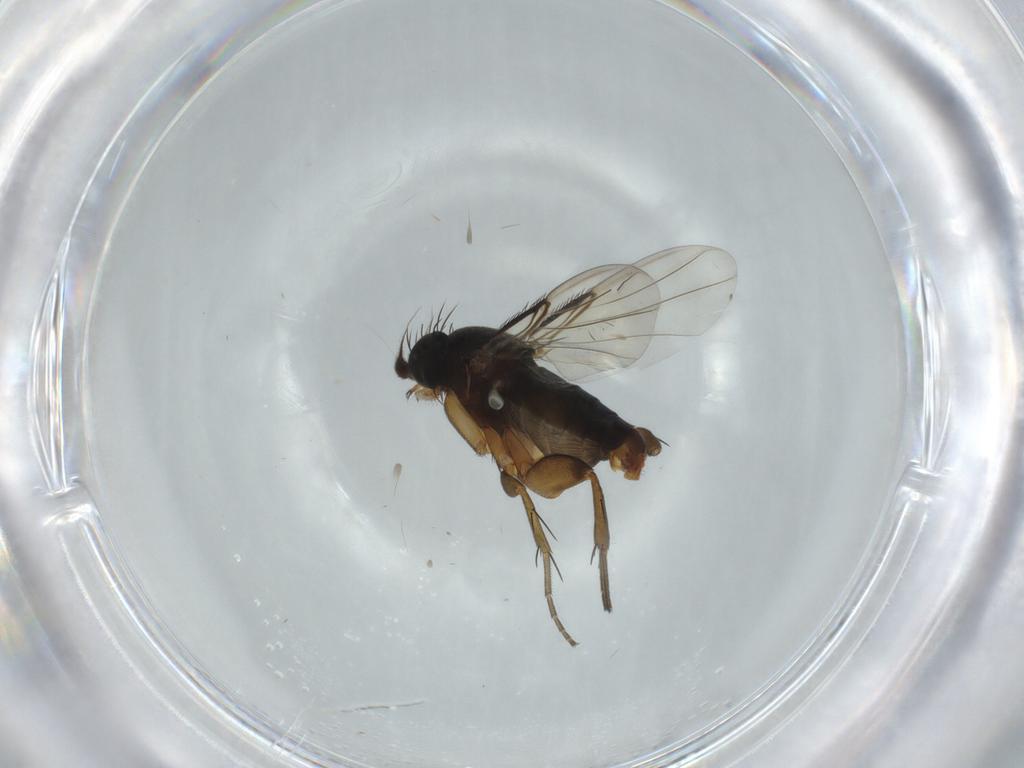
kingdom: Animalia
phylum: Arthropoda
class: Insecta
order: Diptera
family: Phoridae
